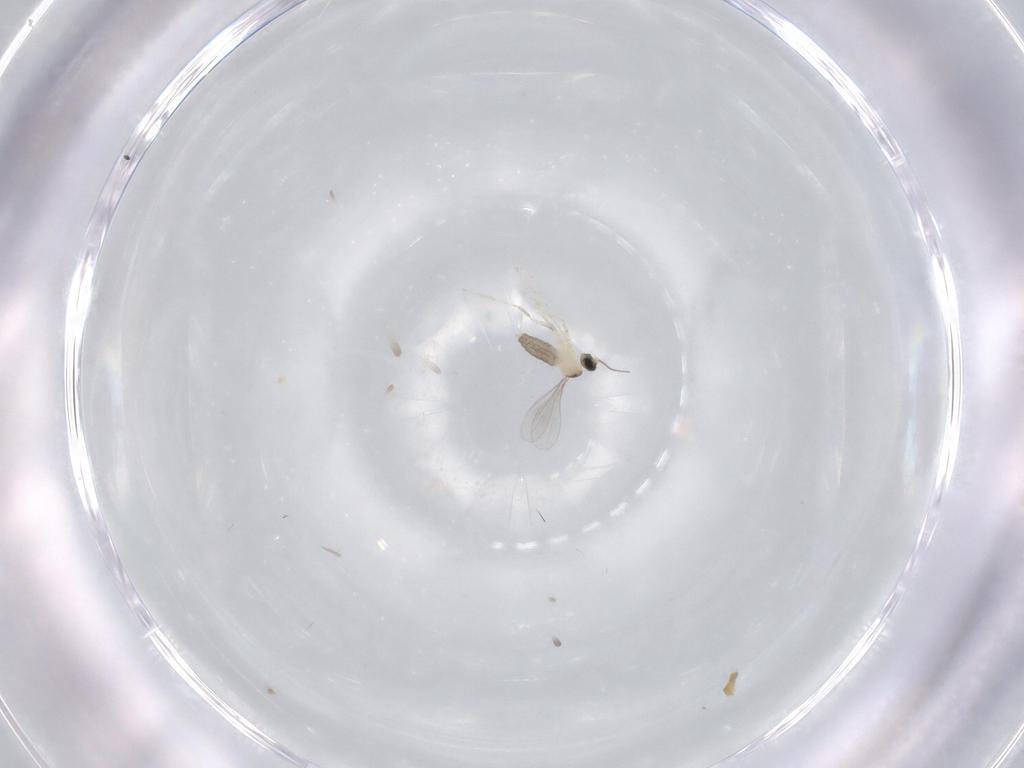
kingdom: Animalia
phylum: Arthropoda
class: Insecta
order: Diptera
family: Cecidomyiidae
